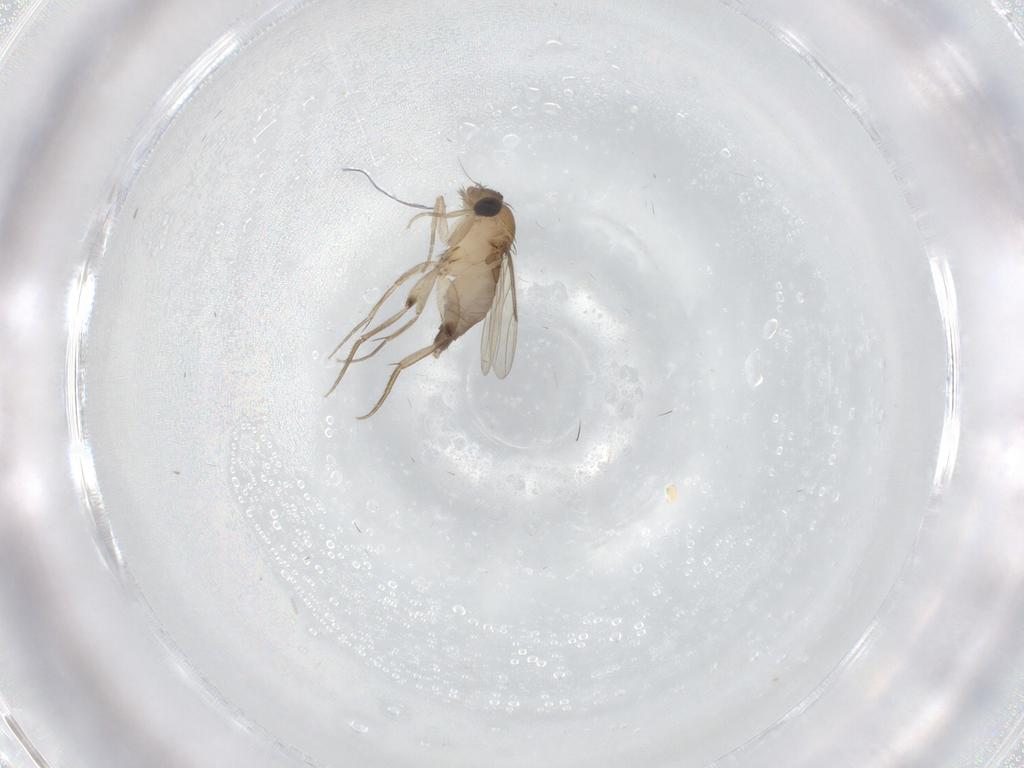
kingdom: Animalia
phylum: Arthropoda
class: Insecta
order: Diptera
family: Phoridae
